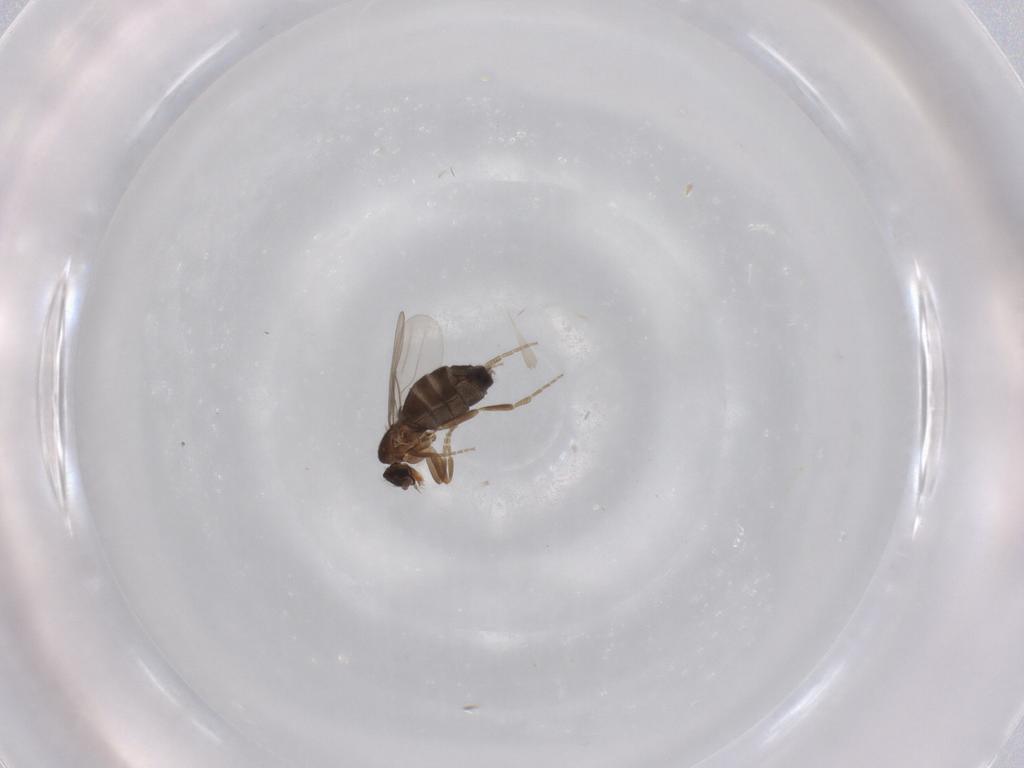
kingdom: Animalia
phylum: Arthropoda
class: Insecta
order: Diptera
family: Phoridae
